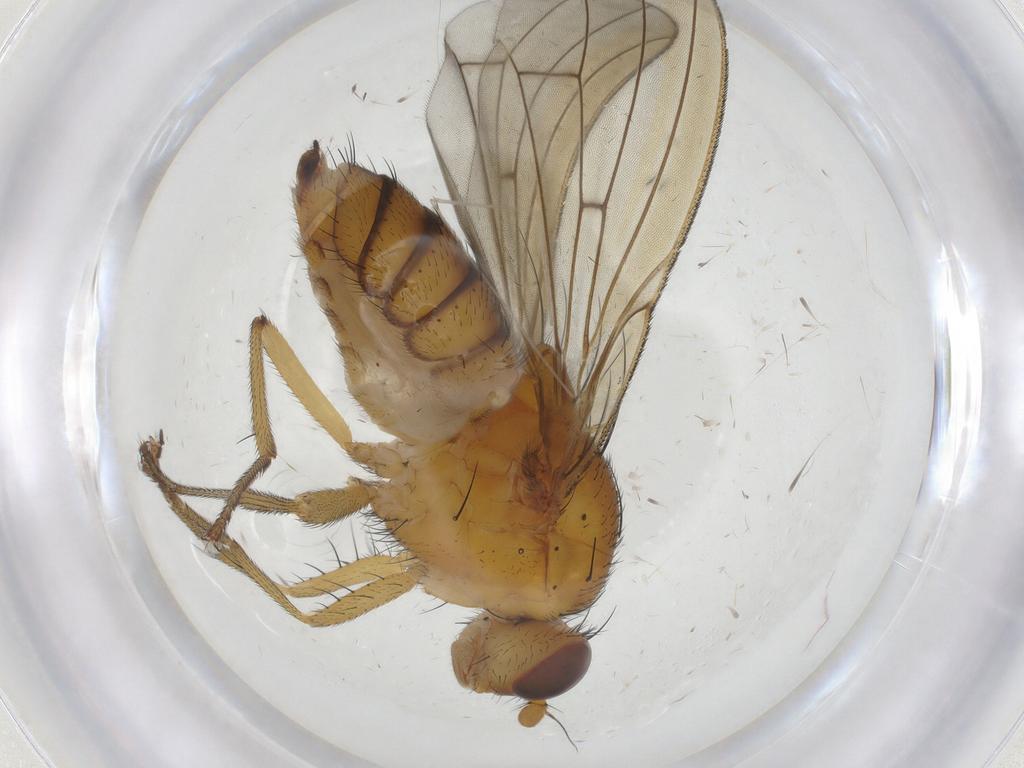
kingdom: Animalia
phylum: Arthropoda
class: Insecta
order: Diptera
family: Sciaridae
